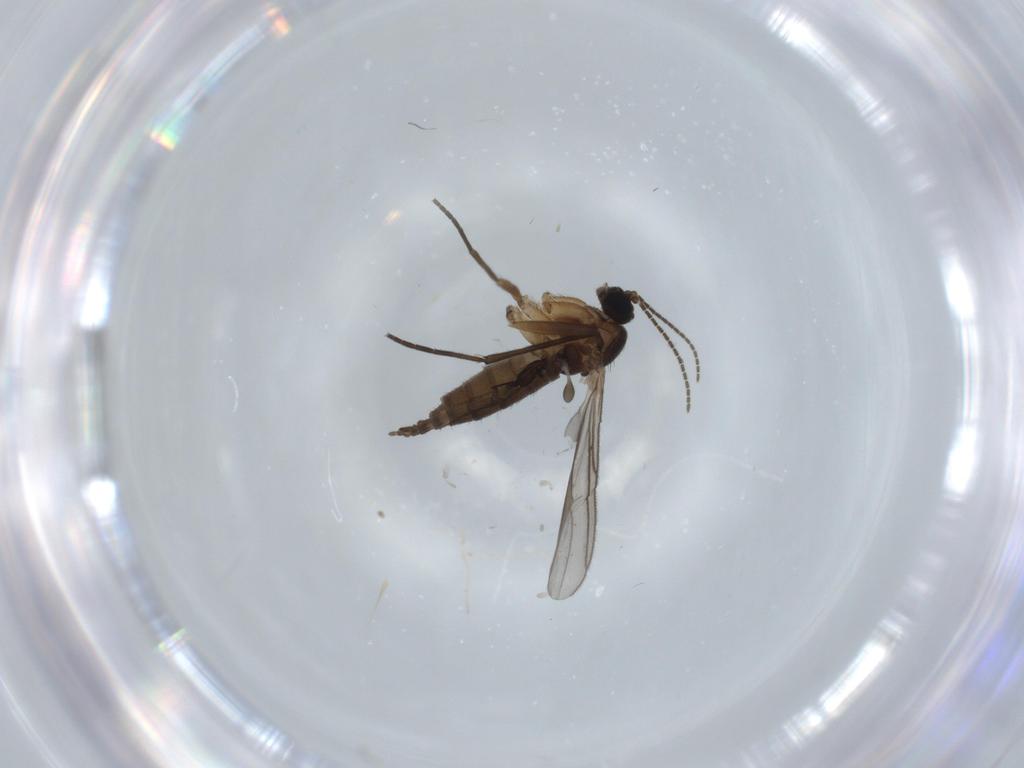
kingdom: Animalia
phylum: Arthropoda
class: Insecta
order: Diptera
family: Sciaridae
